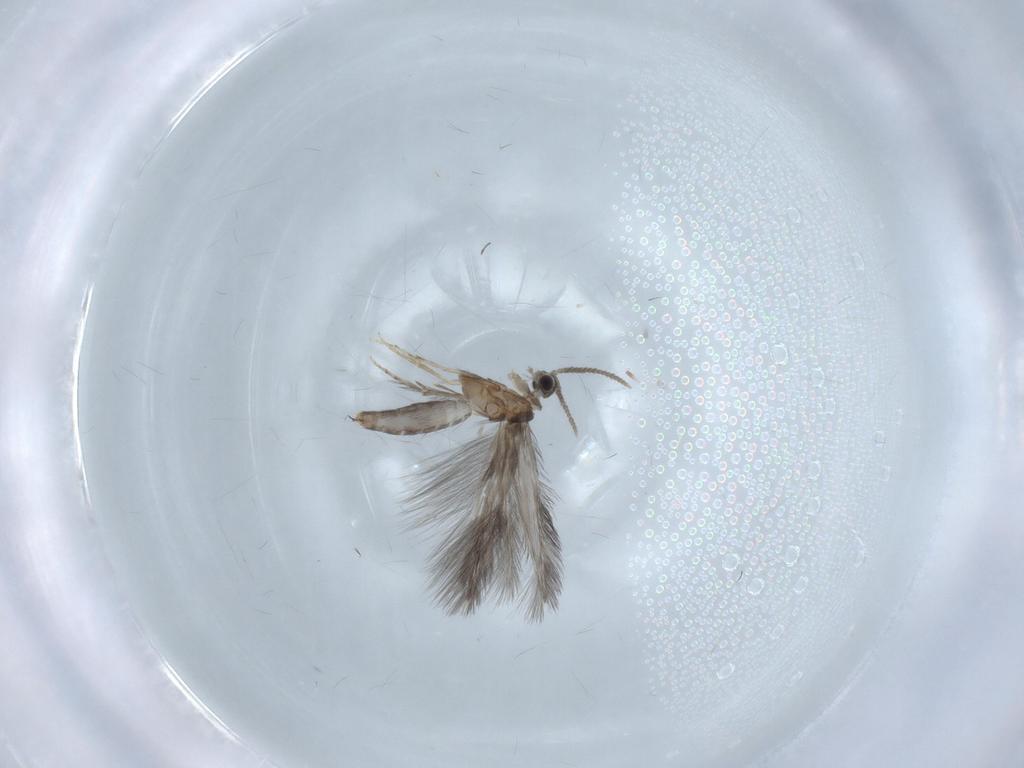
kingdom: Animalia
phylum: Arthropoda
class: Insecta
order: Trichoptera
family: Hydroptilidae
